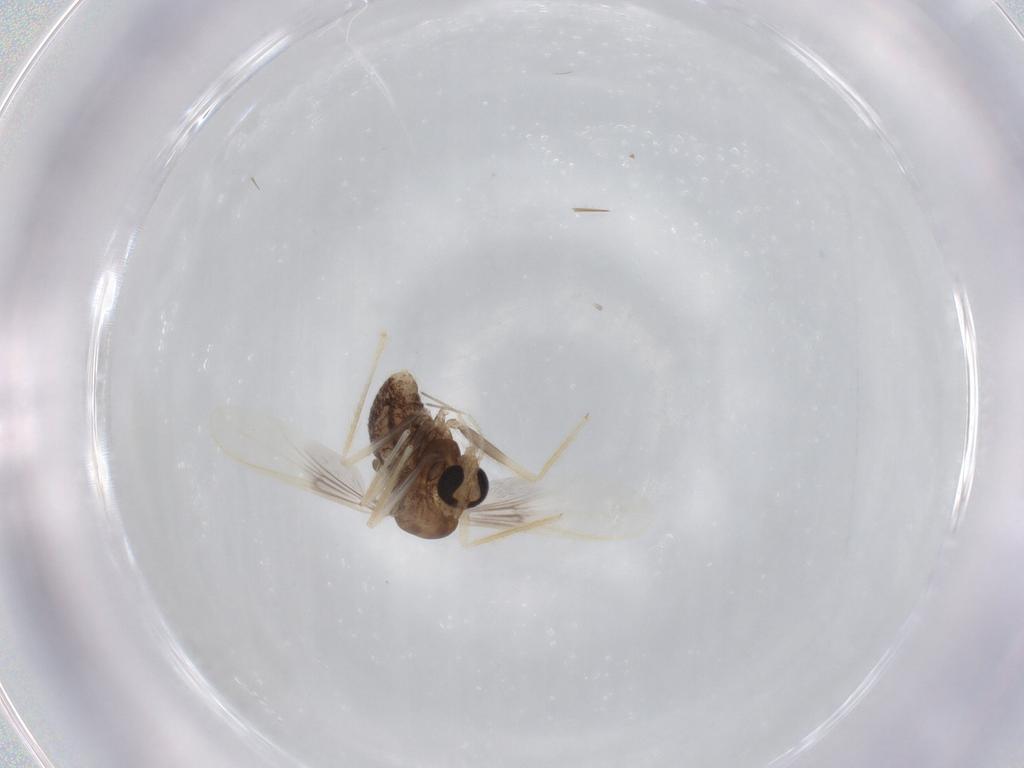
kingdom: Animalia
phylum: Arthropoda
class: Insecta
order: Diptera
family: Chironomidae
